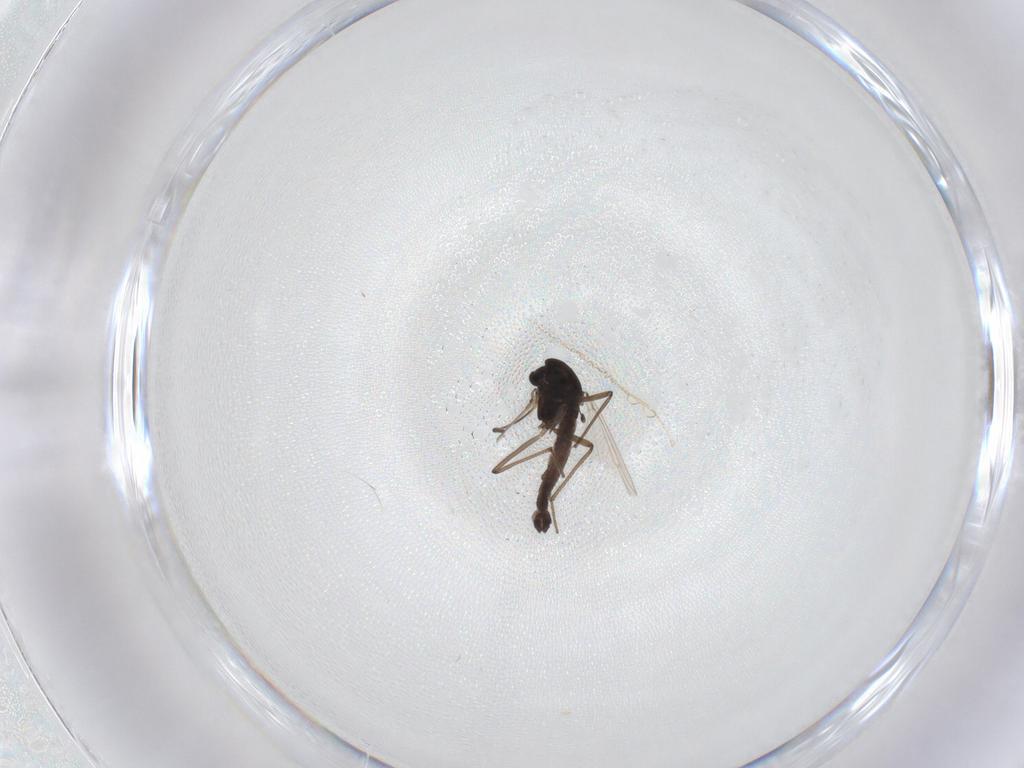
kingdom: Animalia
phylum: Arthropoda
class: Insecta
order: Diptera
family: Chironomidae
